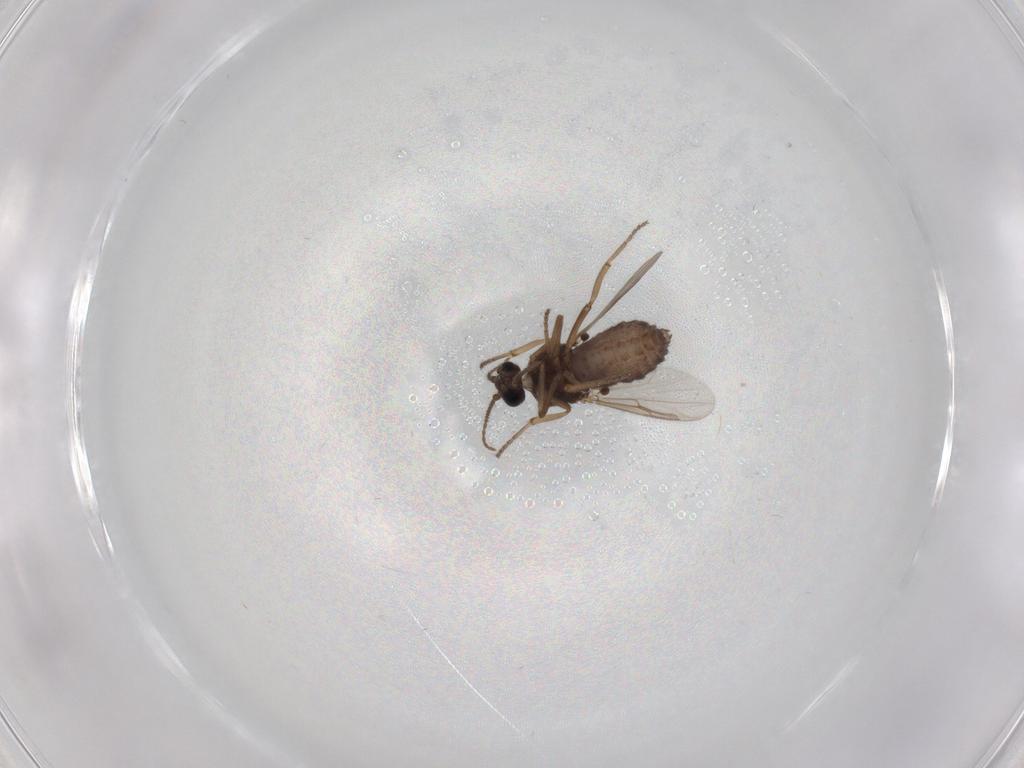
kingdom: Animalia
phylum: Arthropoda
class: Insecta
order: Diptera
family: Ceratopogonidae
